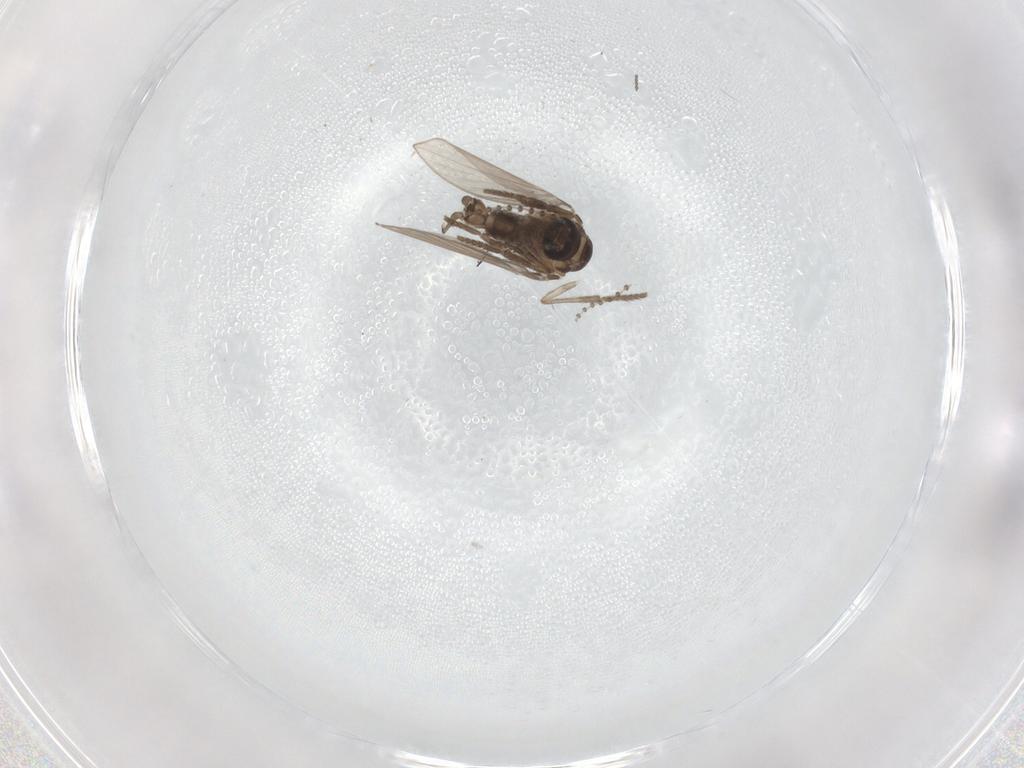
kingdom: Animalia
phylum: Arthropoda
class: Insecta
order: Diptera
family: Psychodidae
